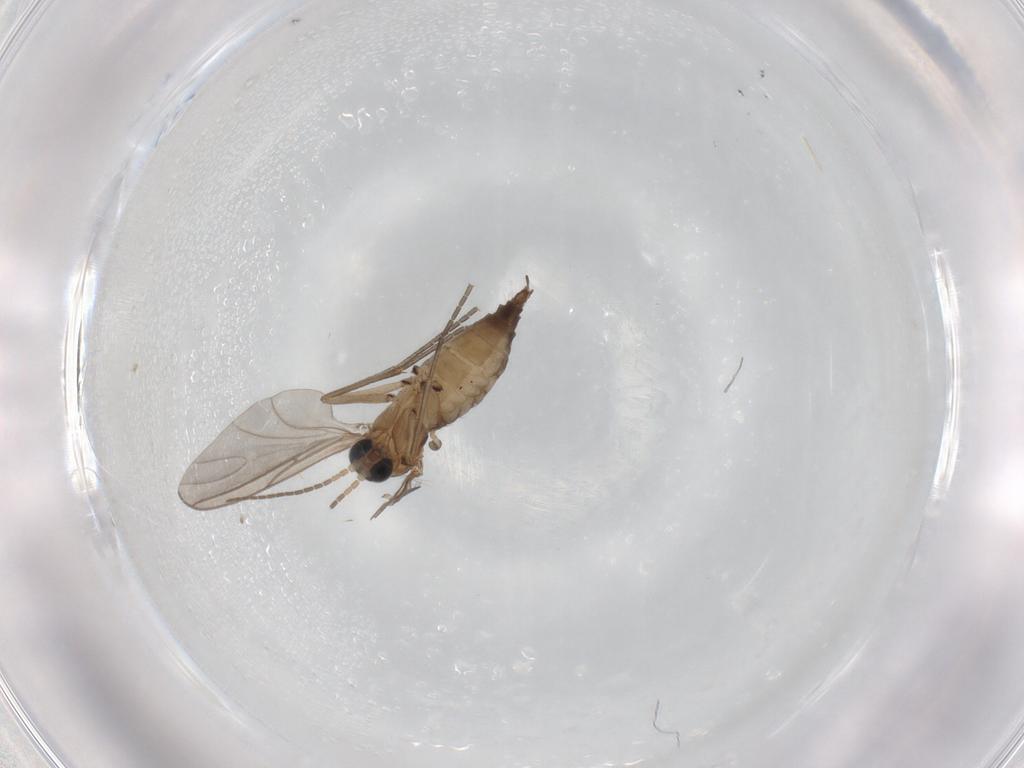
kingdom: Animalia
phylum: Arthropoda
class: Insecta
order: Diptera
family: Sciaridae
